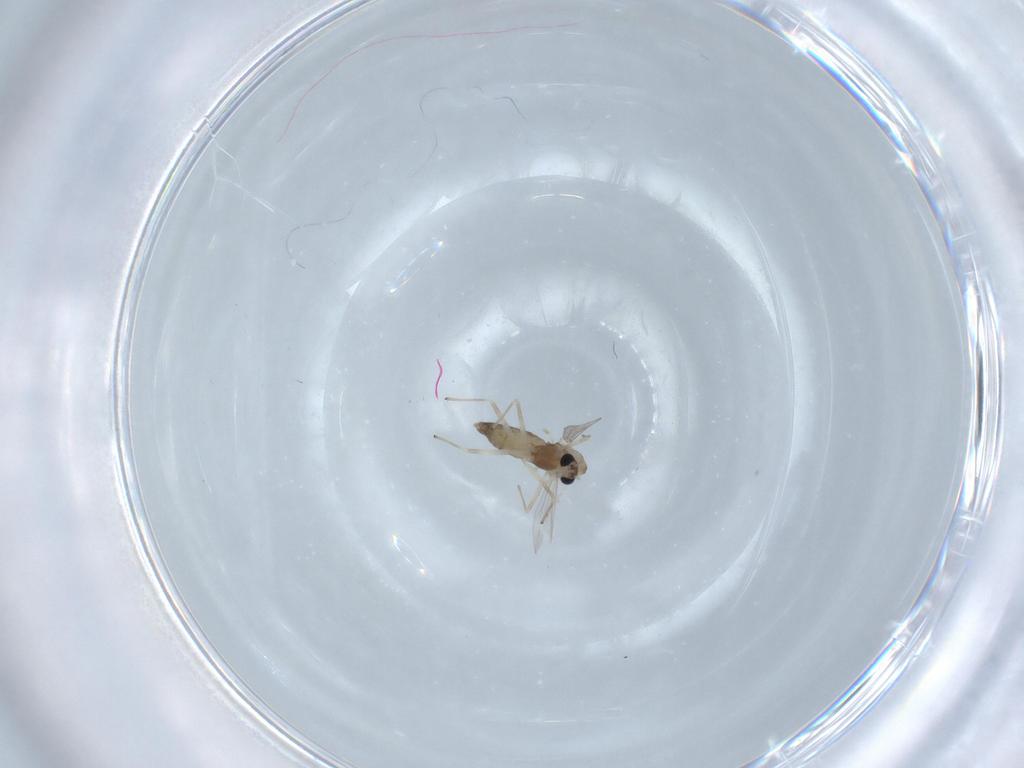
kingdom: Animalia
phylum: Arthropoda
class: Insecta
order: Diptera
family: Chironomidae
